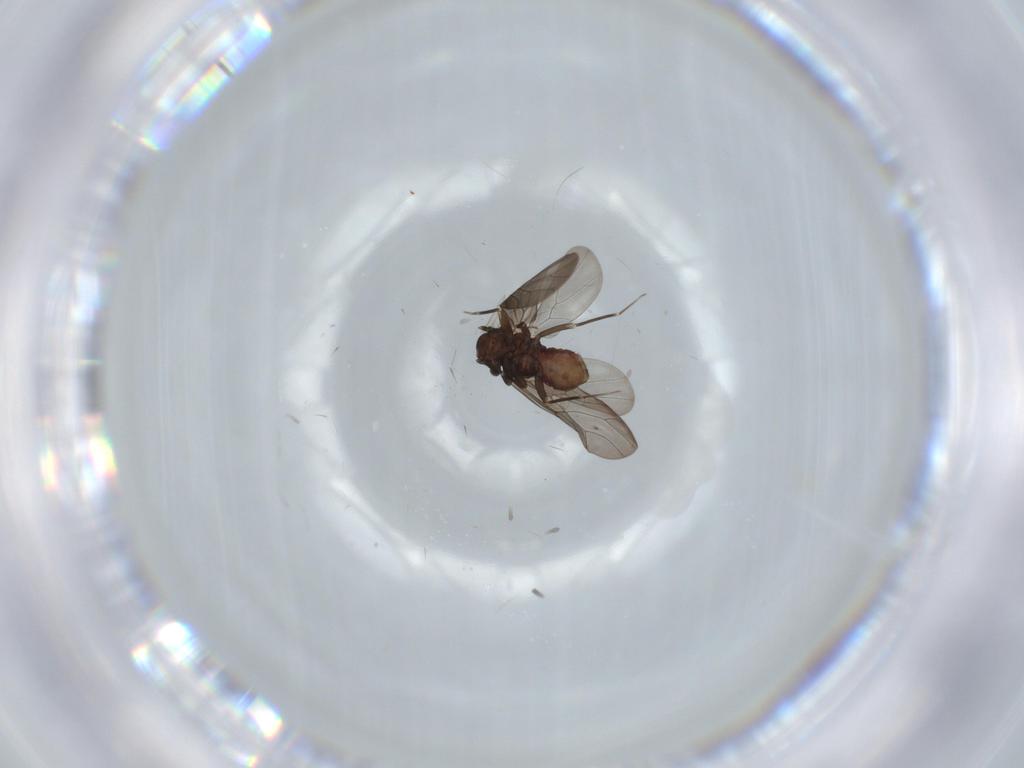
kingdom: Animalia
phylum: Arthropoda
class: Insecta
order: Psocodea
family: Lepidopsocidae
